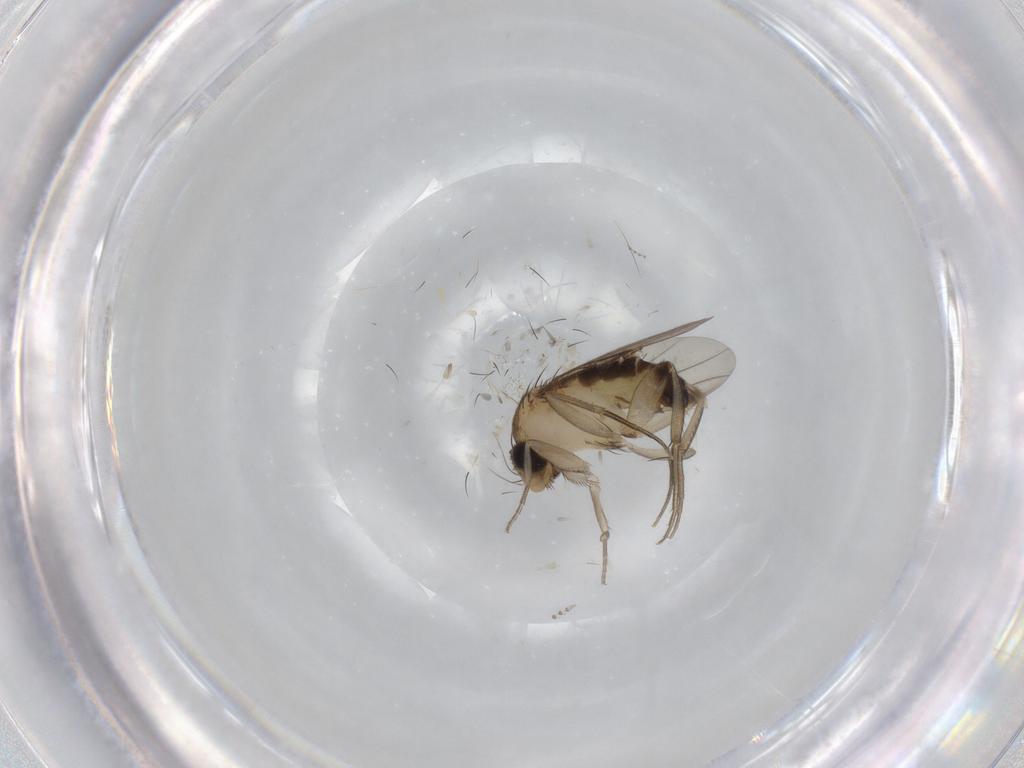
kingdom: Animalia
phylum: Arthropoda
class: Insecta
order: Diptera
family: Phoridae
